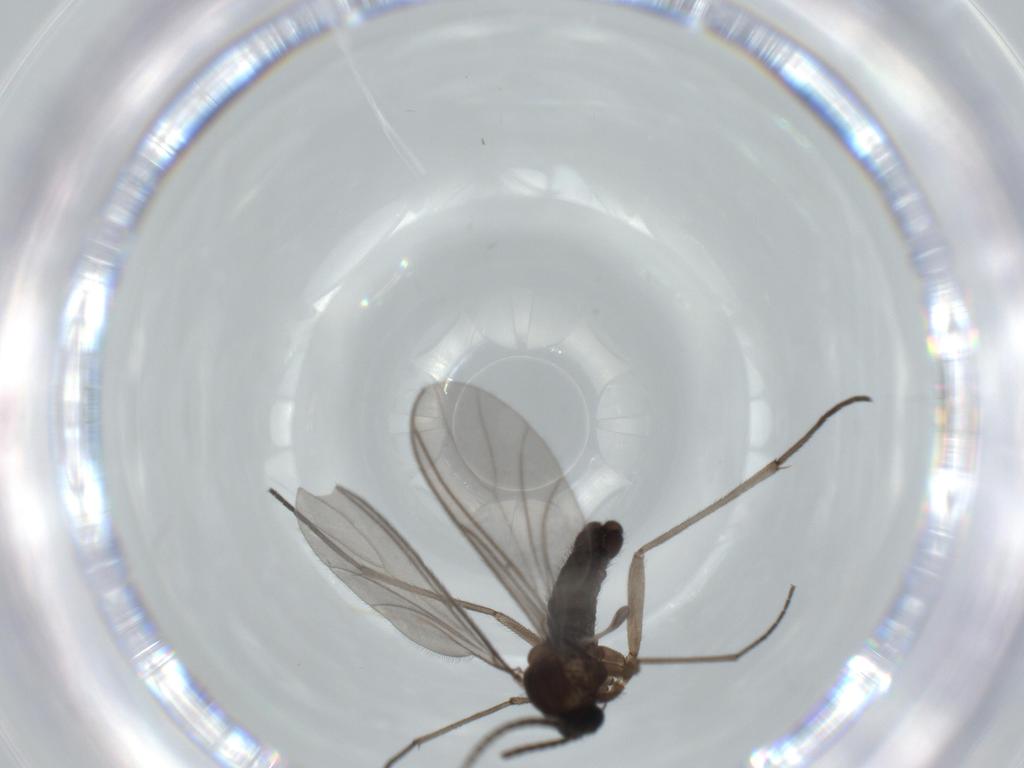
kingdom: Animalia
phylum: Arthropoda
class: Insecta
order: Diptera
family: Sciaridae
